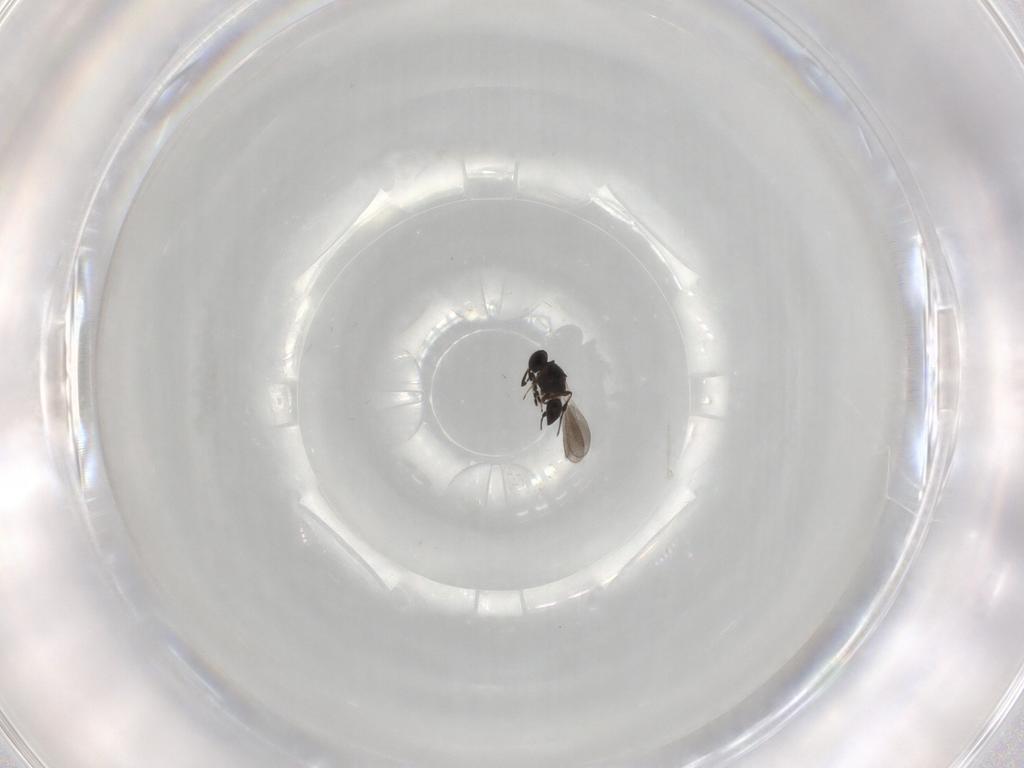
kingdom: Animalia
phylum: Arthropoda
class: Insecta
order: Hymenoptera
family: Platygastridae
